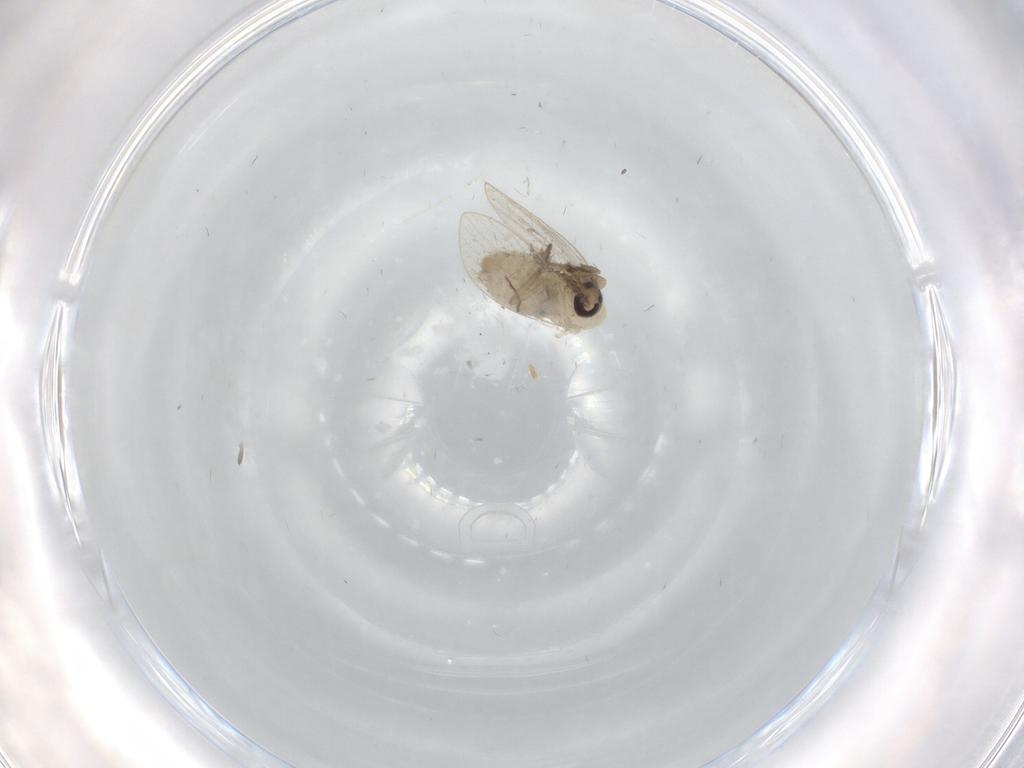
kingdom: Animalia
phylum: Arthropoda
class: Insecta
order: Diptera
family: Psychodidae
